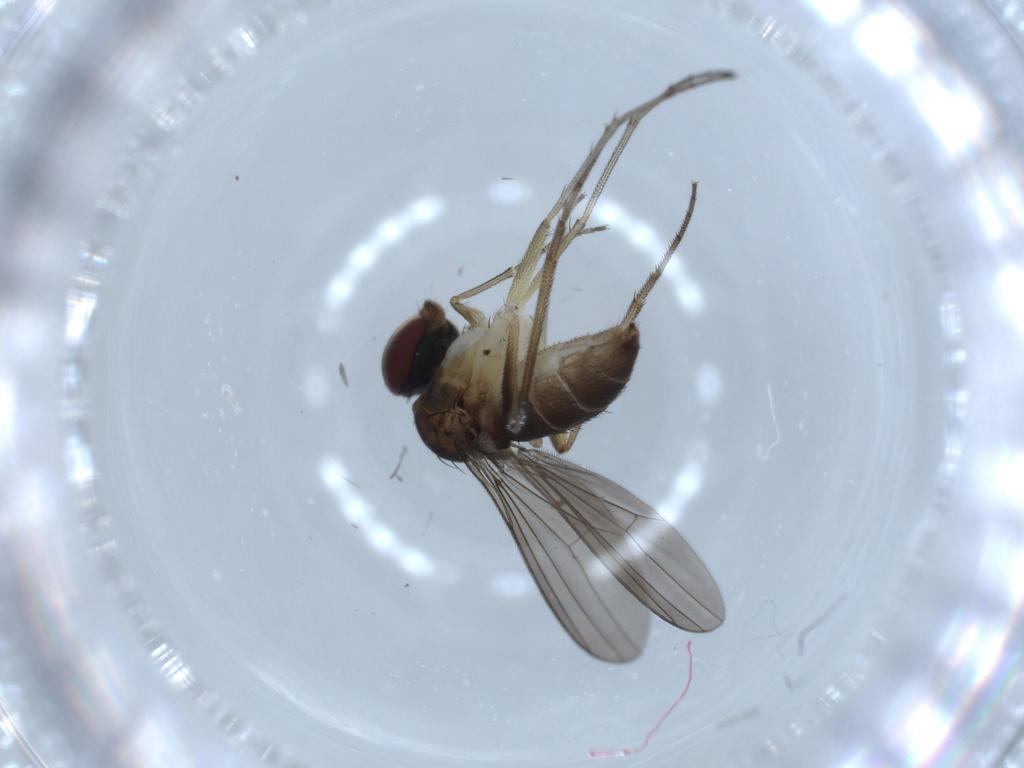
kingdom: Animalia
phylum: Arthropoda
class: Insecta
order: Diptera
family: Dolichopodidae
